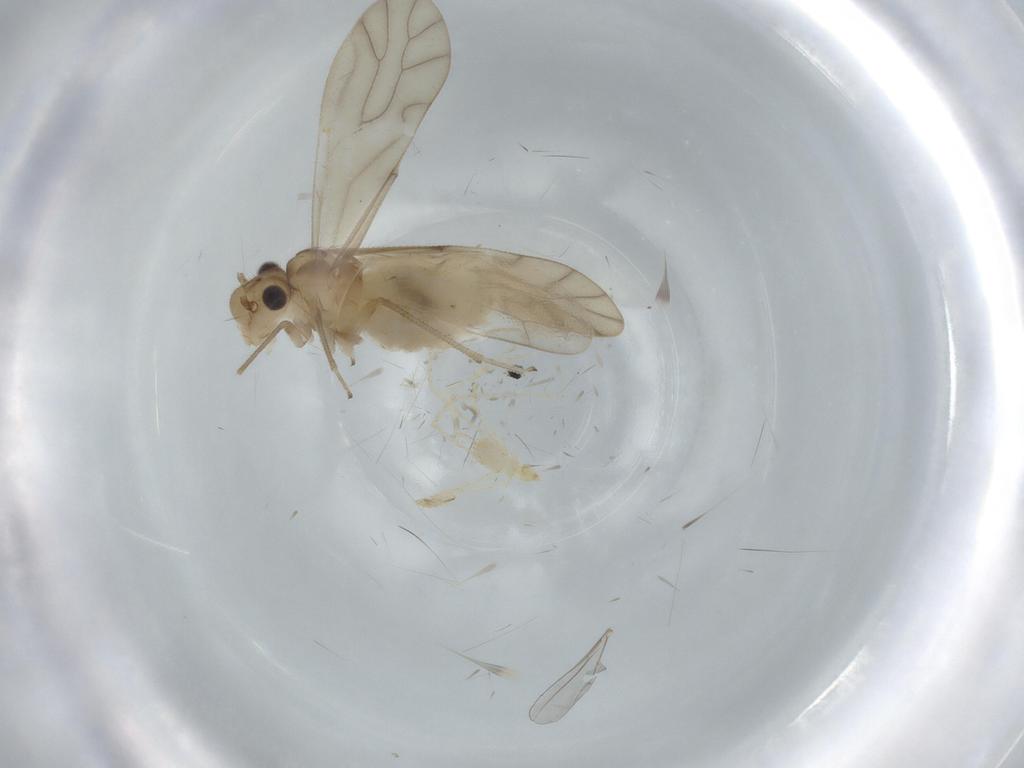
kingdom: Animalia
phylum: Arthropoda
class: Insecta
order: Psocodea
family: Caeciliusidae
